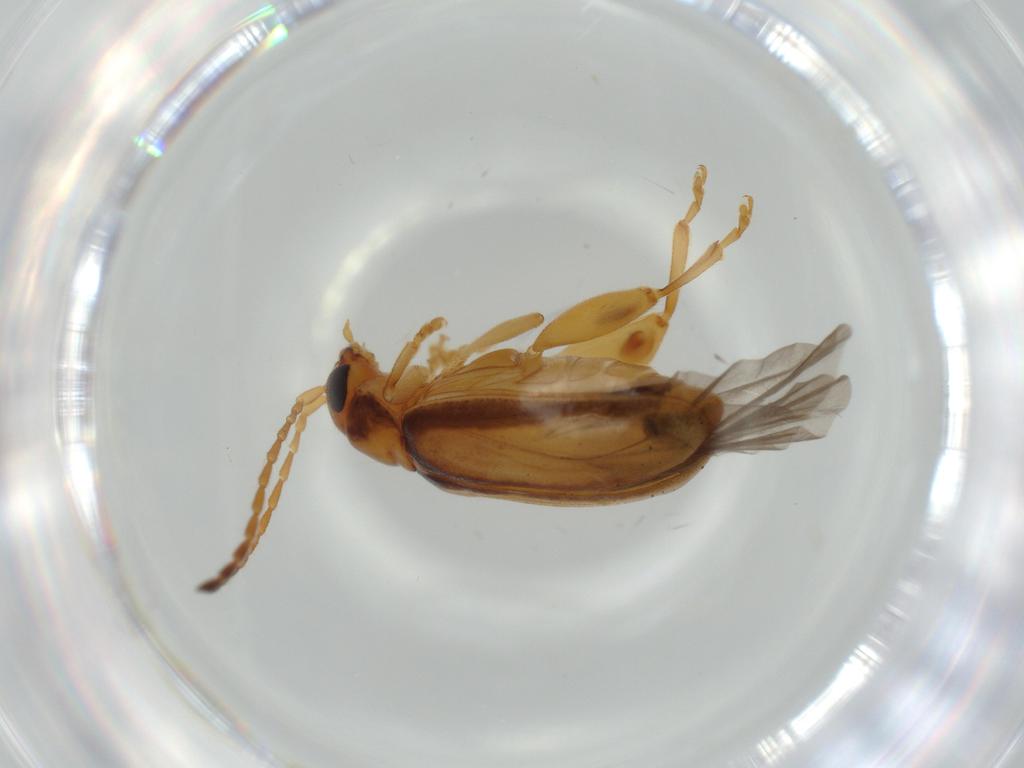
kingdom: Animalia
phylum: Arthropoda
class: Insecta
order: Coleoptera
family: Chrysomelidae
